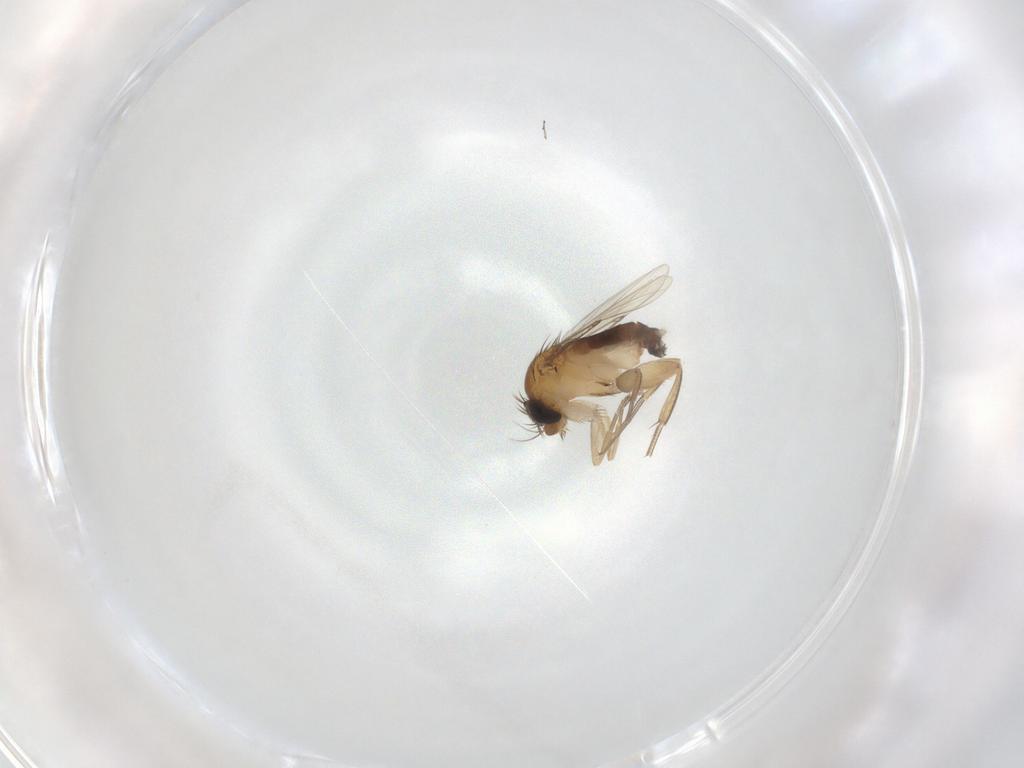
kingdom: Animalia
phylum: Arthropoda
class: Insecta
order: Diptera
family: Phoridae
